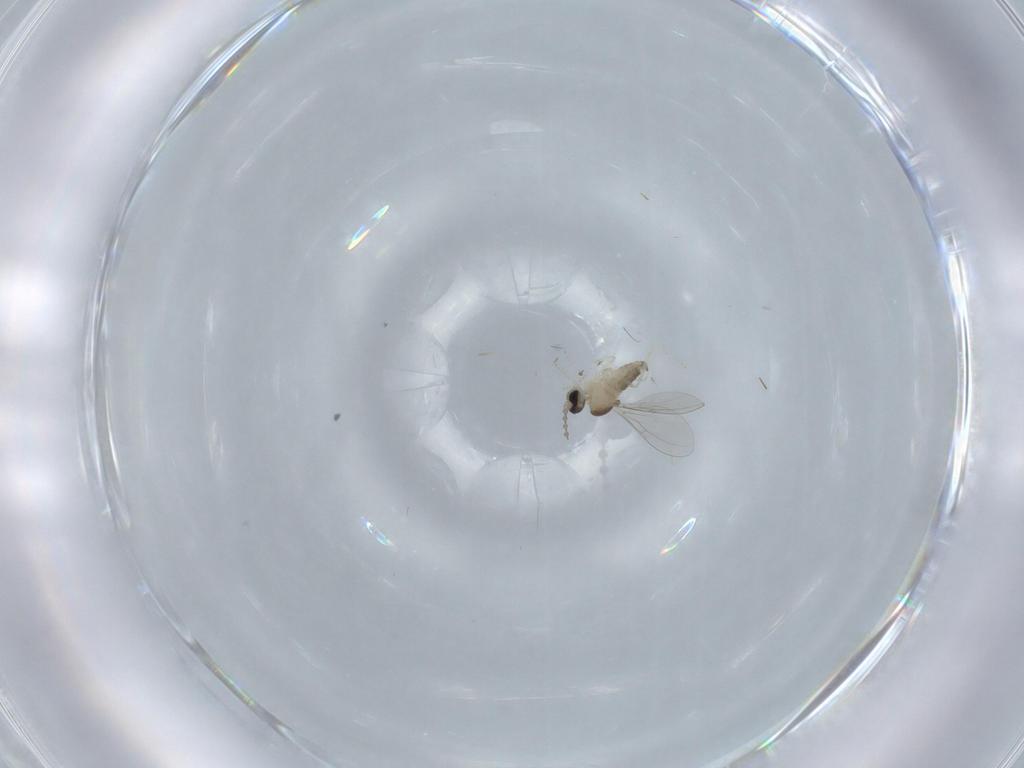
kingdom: Animalia
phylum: Arthropoda
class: Insecta
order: Diptera
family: Cecidomyiidae
